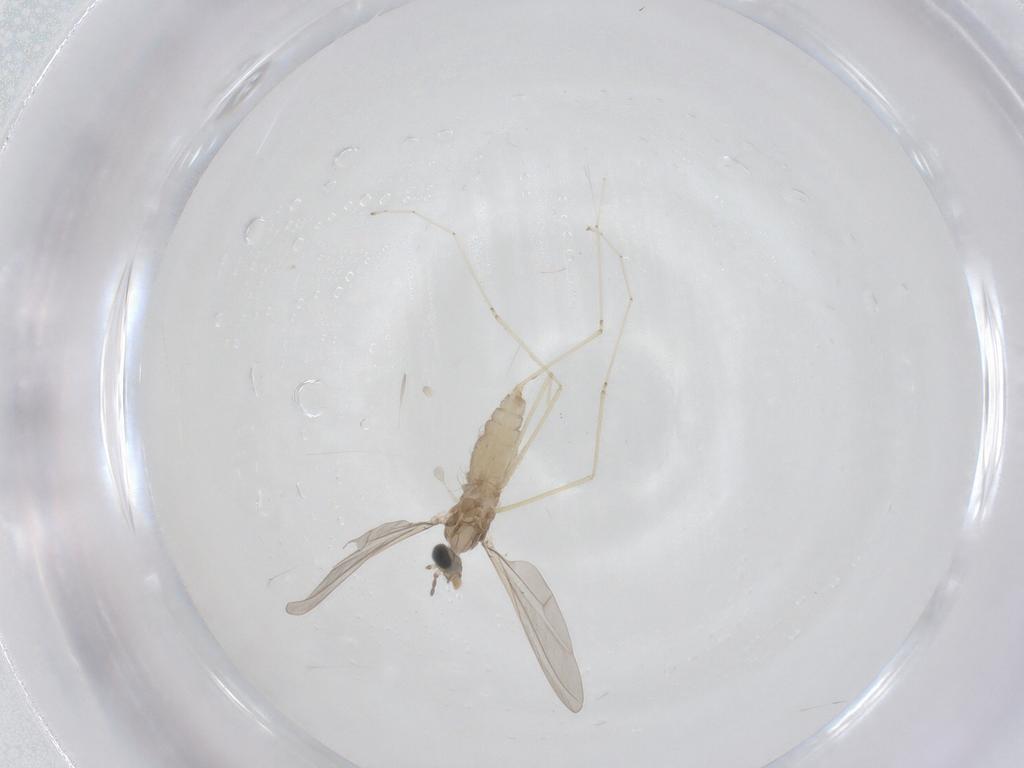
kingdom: Animalia
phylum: Arthropoda
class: Insecta
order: Diptera
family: Cecidomyiidae
